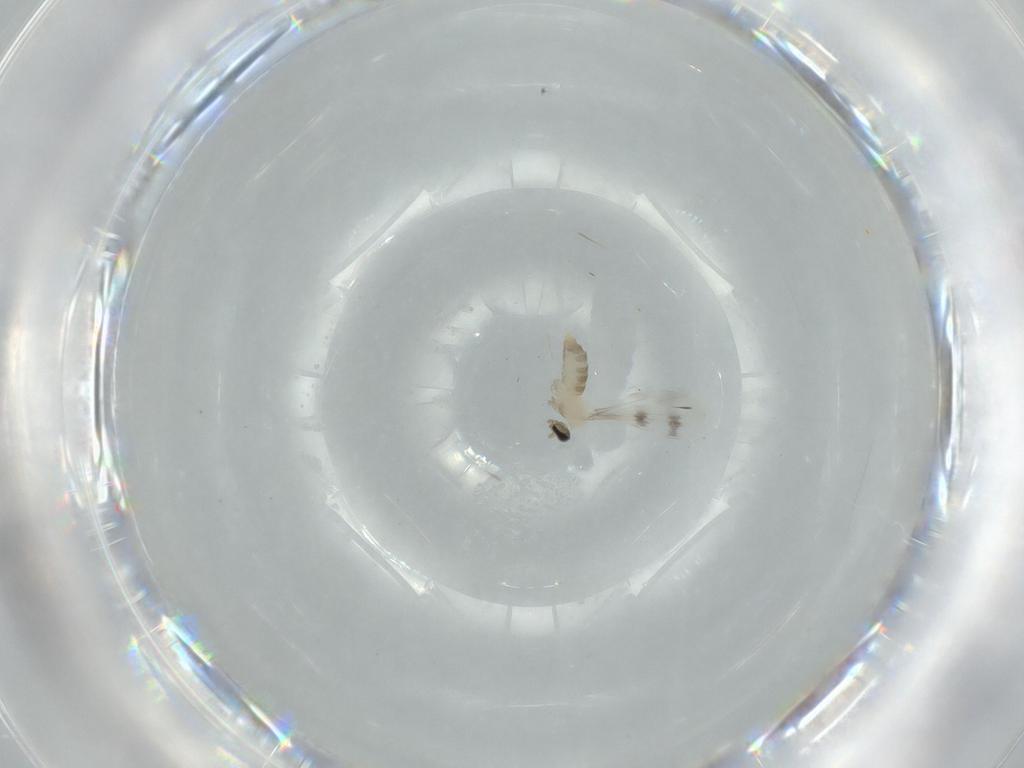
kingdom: Animalia
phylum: Arthropoda
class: Insecta
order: Diptera
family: Cecidomyiidae
